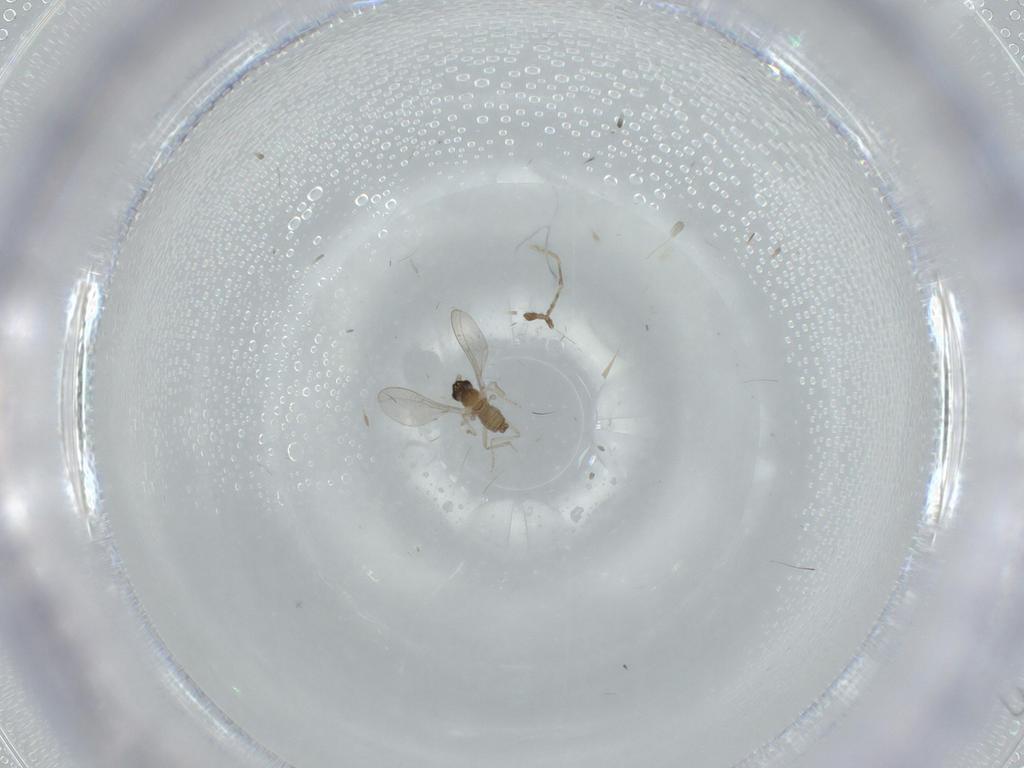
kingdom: Animalia
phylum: Arthropoda
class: Insecta
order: Diptera
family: Cecidomyiidae
